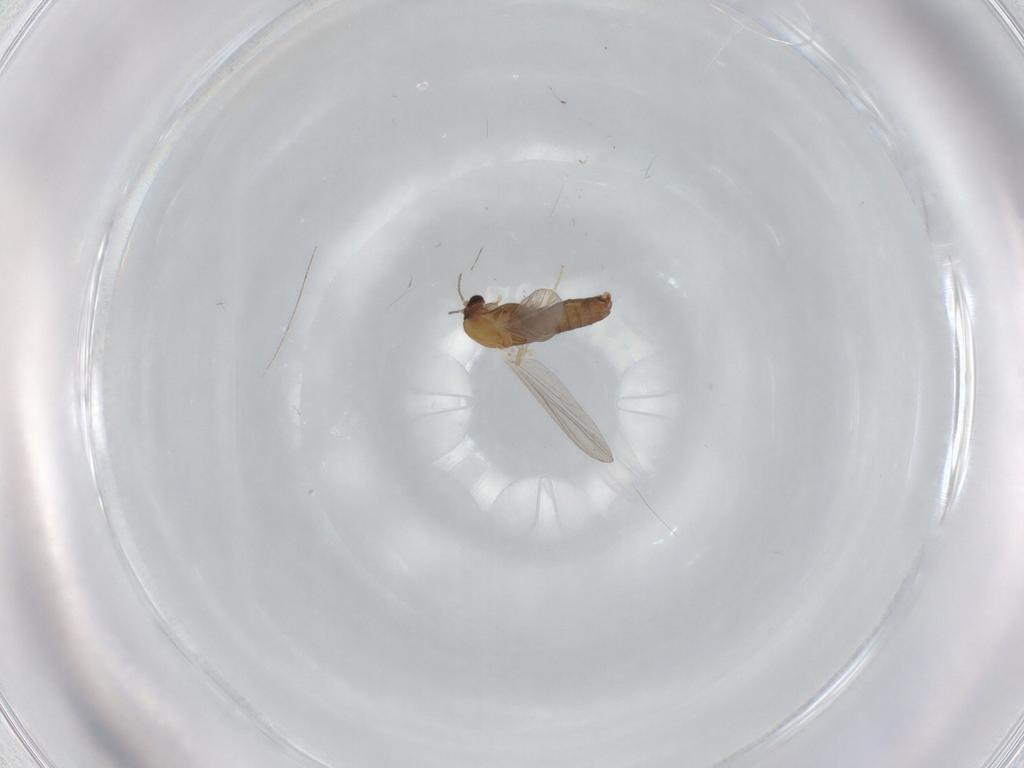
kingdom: Animalia
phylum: Arthropoda
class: Insecta
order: Diptera
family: Chironomidae
